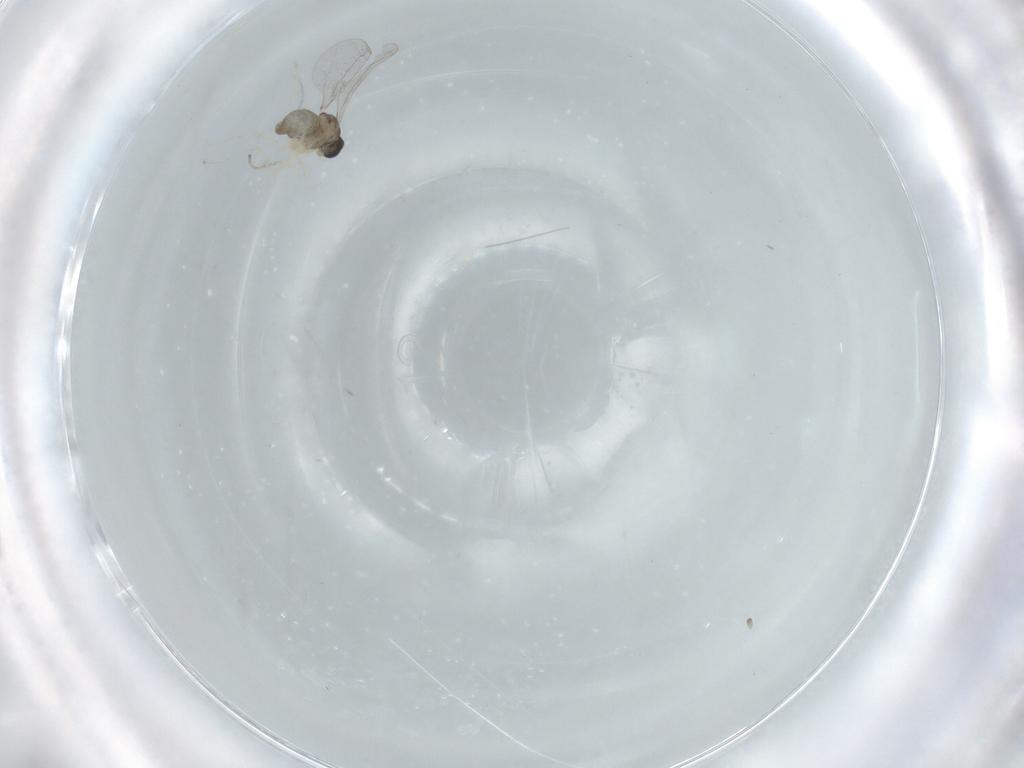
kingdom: Animalia
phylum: Arthropoda
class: Insecta
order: Diptera
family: Cecidomyiidae
